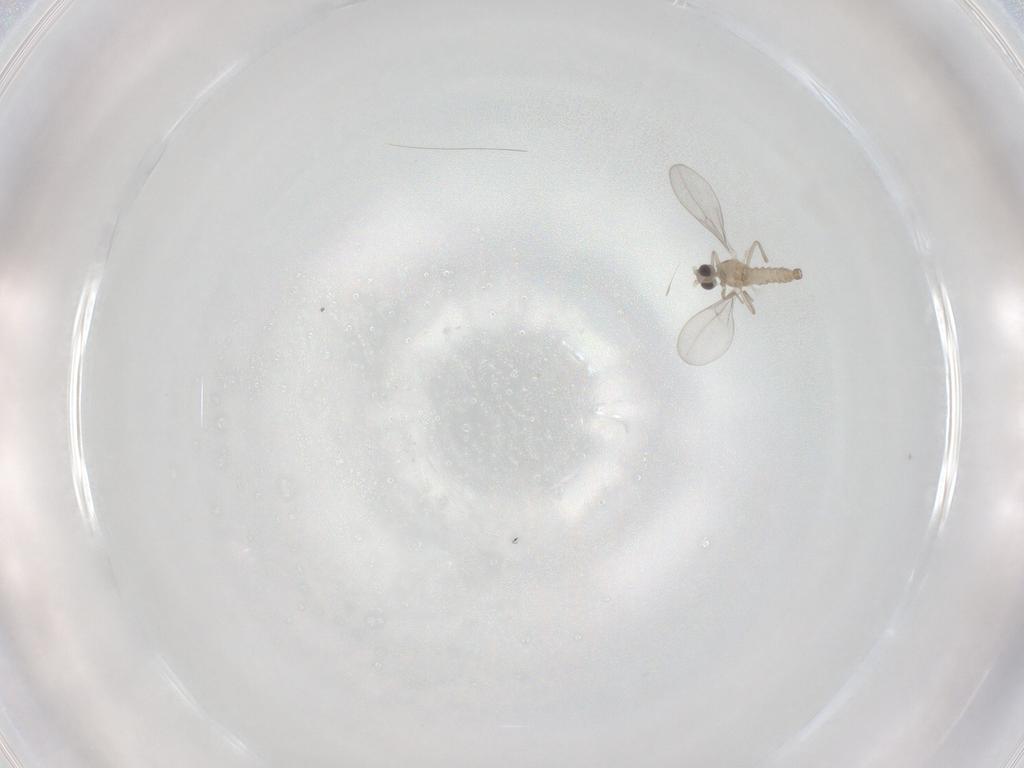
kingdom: Animalia
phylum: Arthropoda
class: Insecta
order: Diptera
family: Cecidomyiidae
